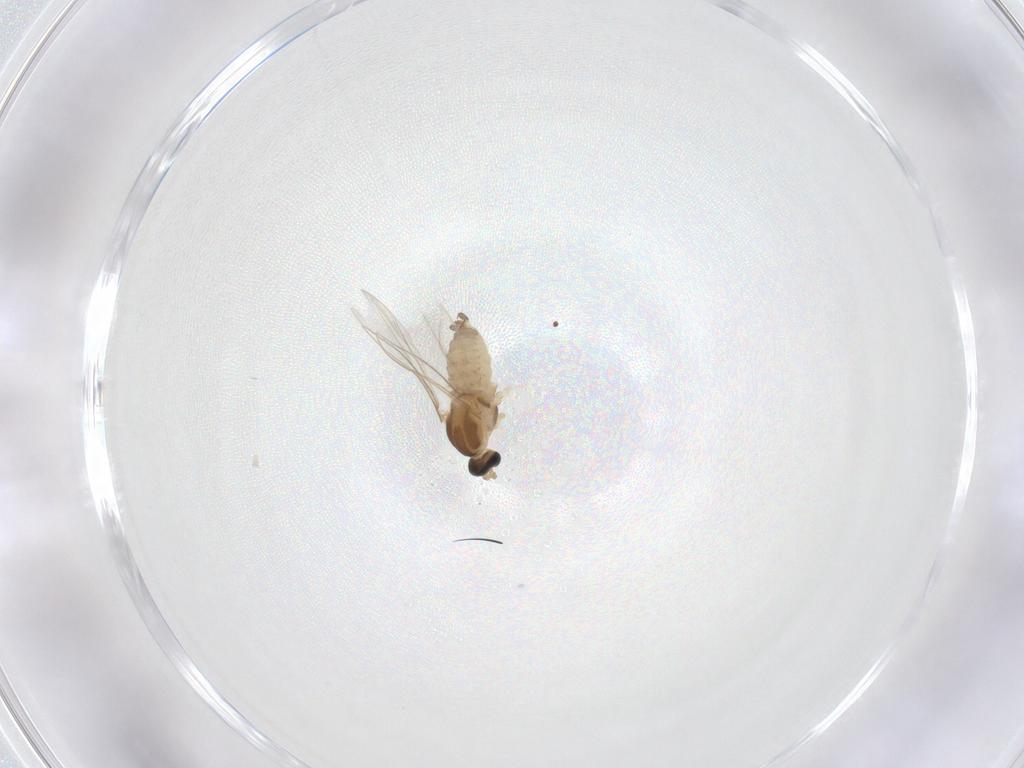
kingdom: Animalia
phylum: Arthropoda
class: Insecta
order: Diptera
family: Cecidomyiidae
